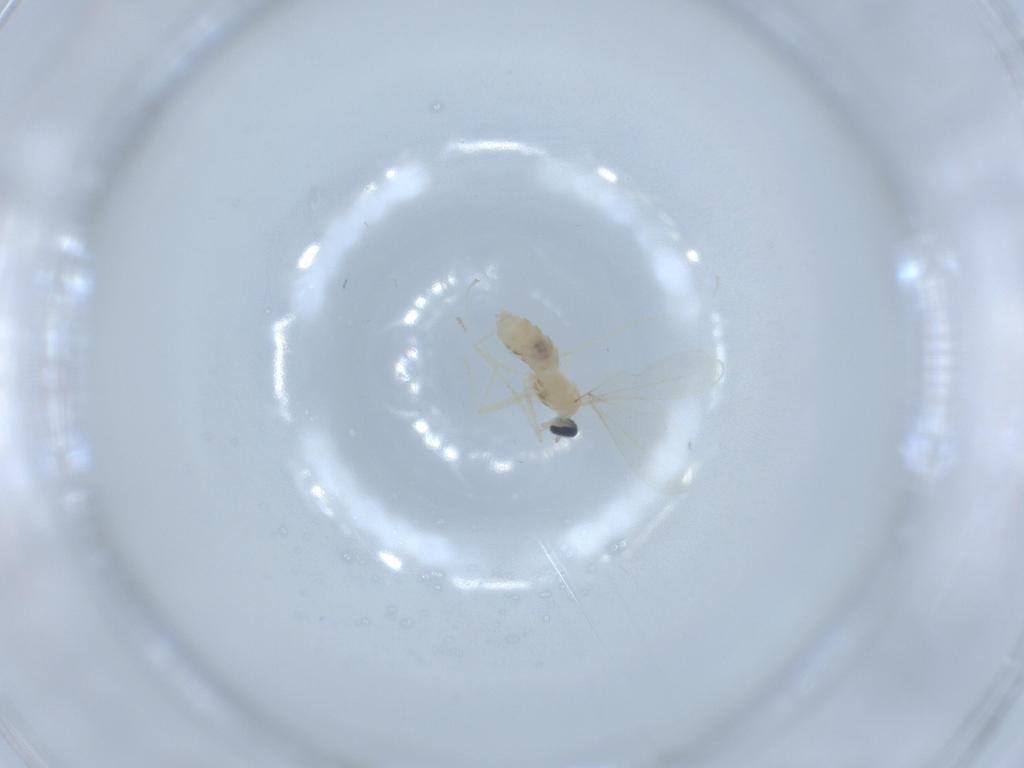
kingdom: Animalia
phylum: Arthropoda
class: Insecta
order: Diptera
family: Cecidomyiidae
